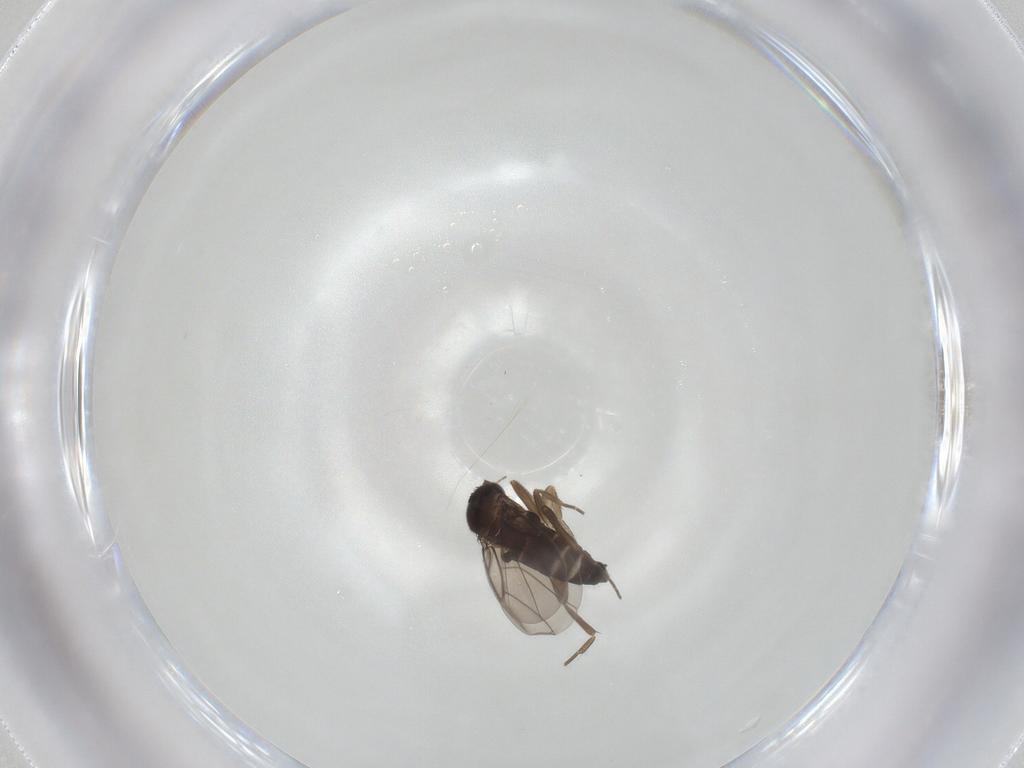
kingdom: Animalia
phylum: Arthropoda
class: Insecta
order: Diptera
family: Phoridae
